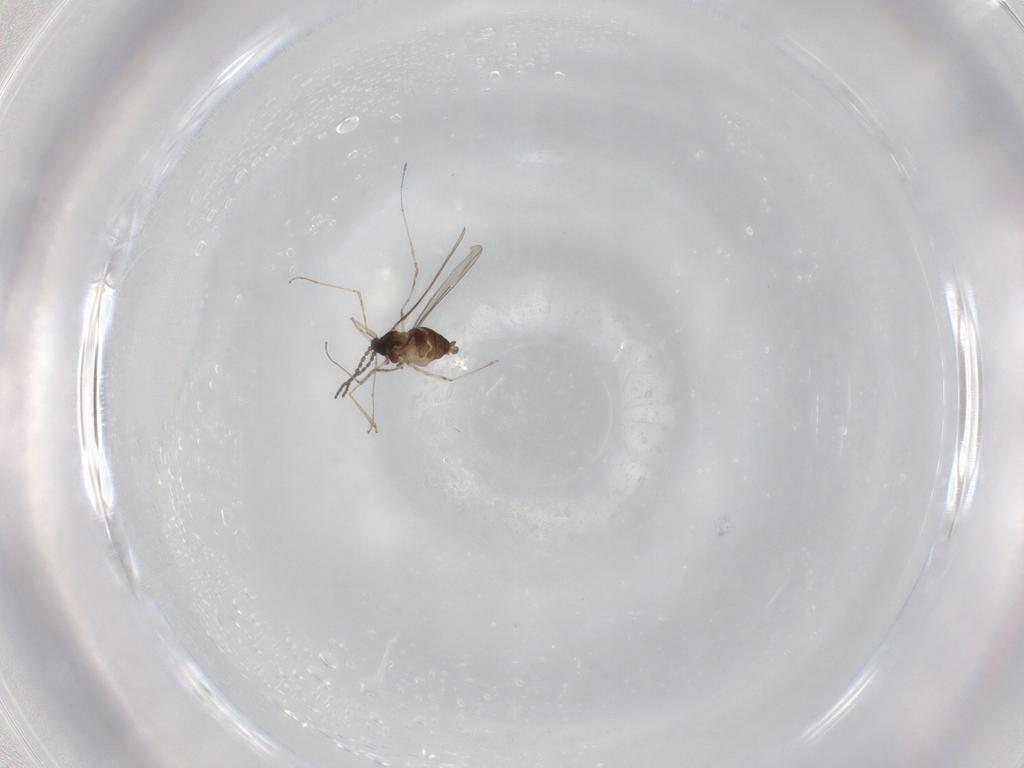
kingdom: Animalia
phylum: Arthropoda
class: Insecta
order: Diptera
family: Cecidomyiidae
